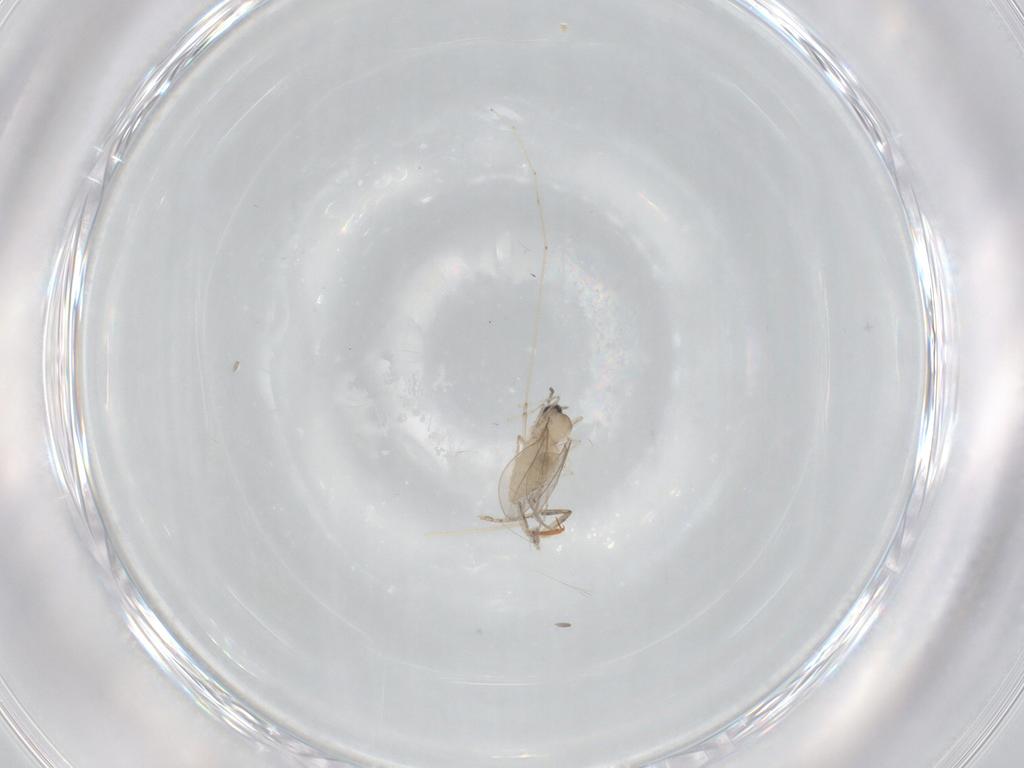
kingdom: Animalia
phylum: Arthropoda
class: Insecta
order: Diptera
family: Cecidomyiidae
